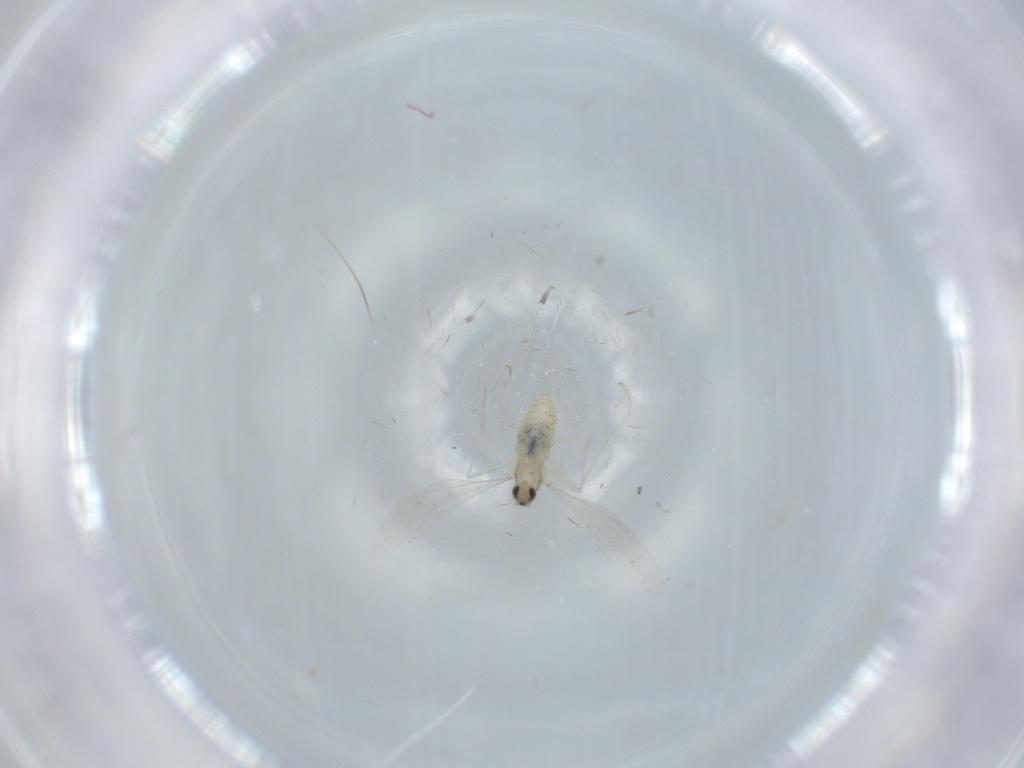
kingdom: Animalia
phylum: Arthropoda
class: Insecta
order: Diptera
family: Cecidomyiidae
